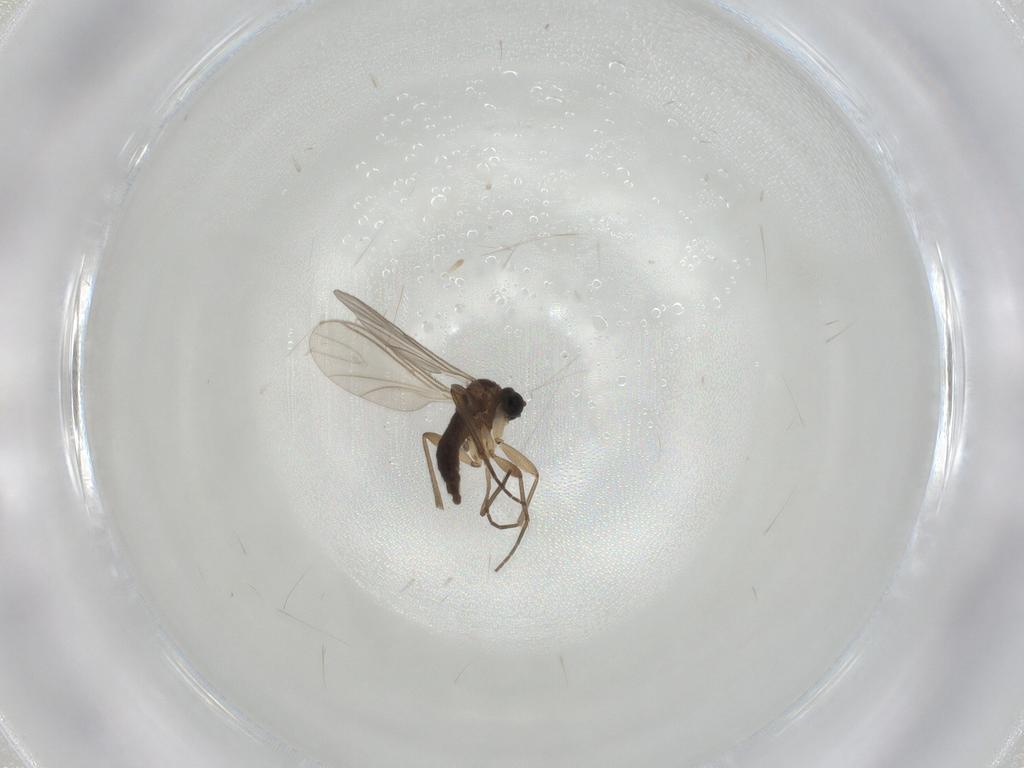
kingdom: Animalia
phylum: Arthropoda
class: Insecta
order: Diptera
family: Sciaridae
